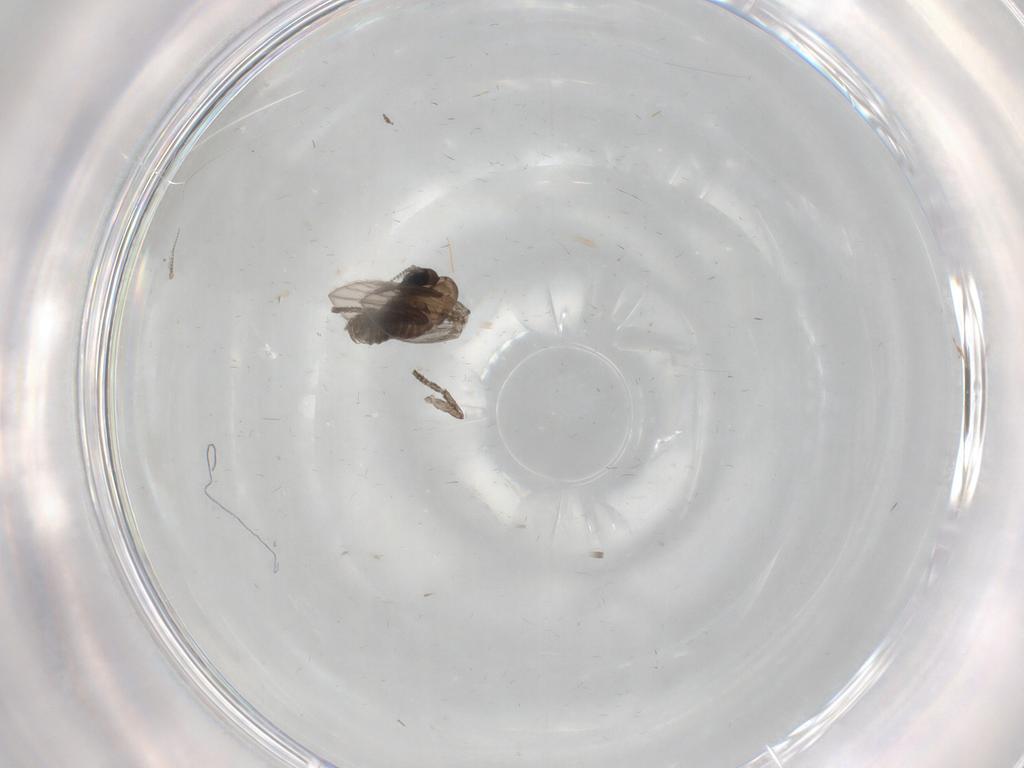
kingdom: Animalia
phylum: Arthropoda
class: Insecta
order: Diptera
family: Psychodidae
